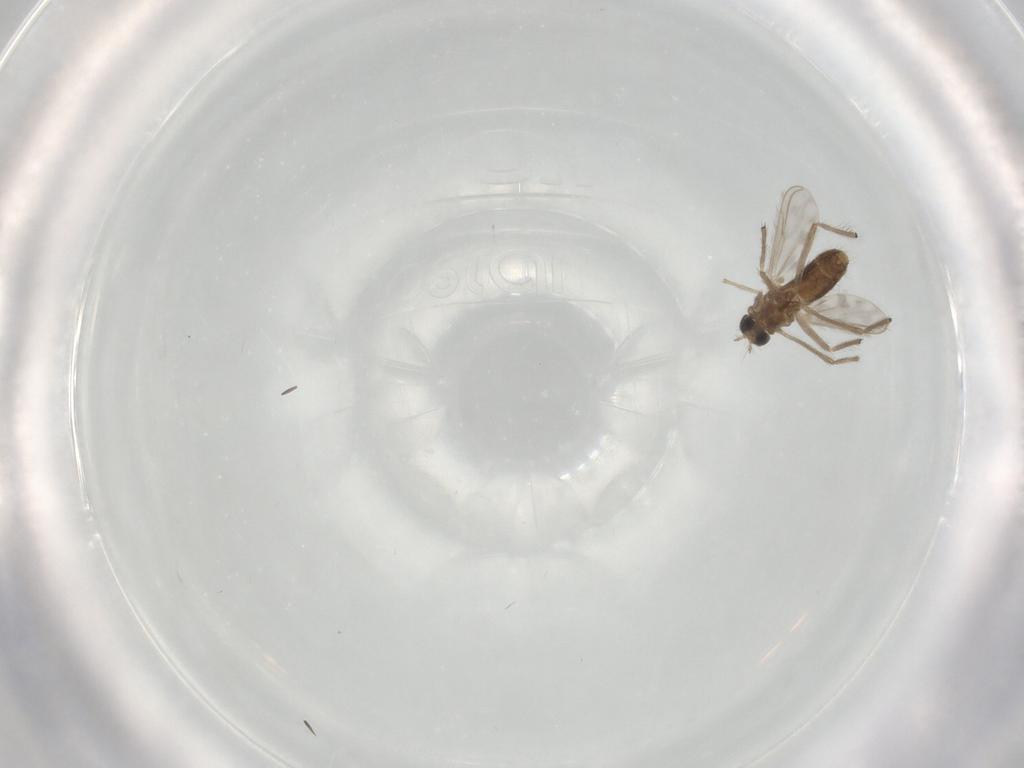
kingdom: Animalia
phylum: Arthropoda
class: Insecta
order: Diptera
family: Chironomidae
